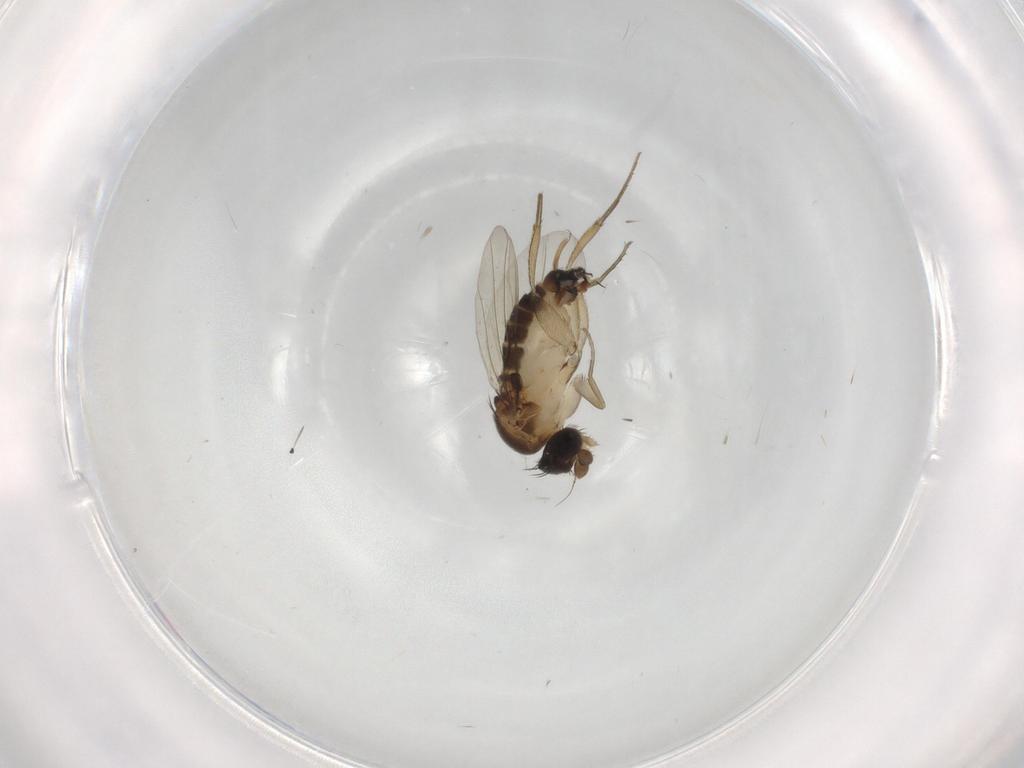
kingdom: Animalia
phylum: Arthropoda
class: Insecta
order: Diptera
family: Phoridae
